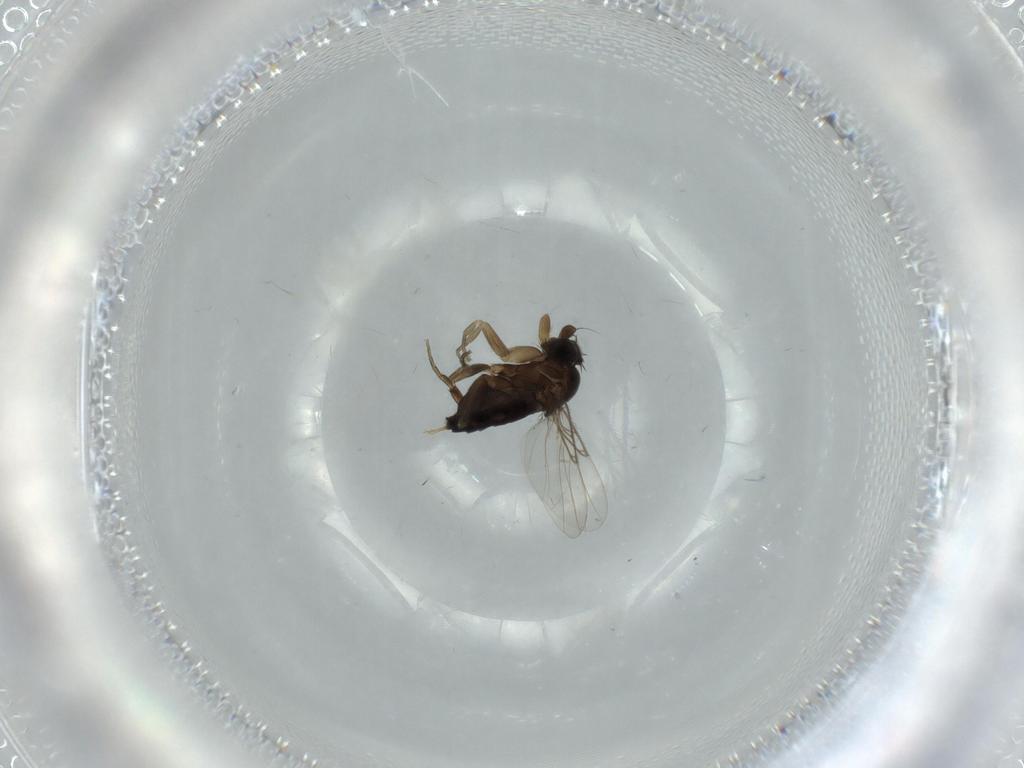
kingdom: Animalia
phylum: Arthropoda
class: Insecta
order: Diptera
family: Phoridae
